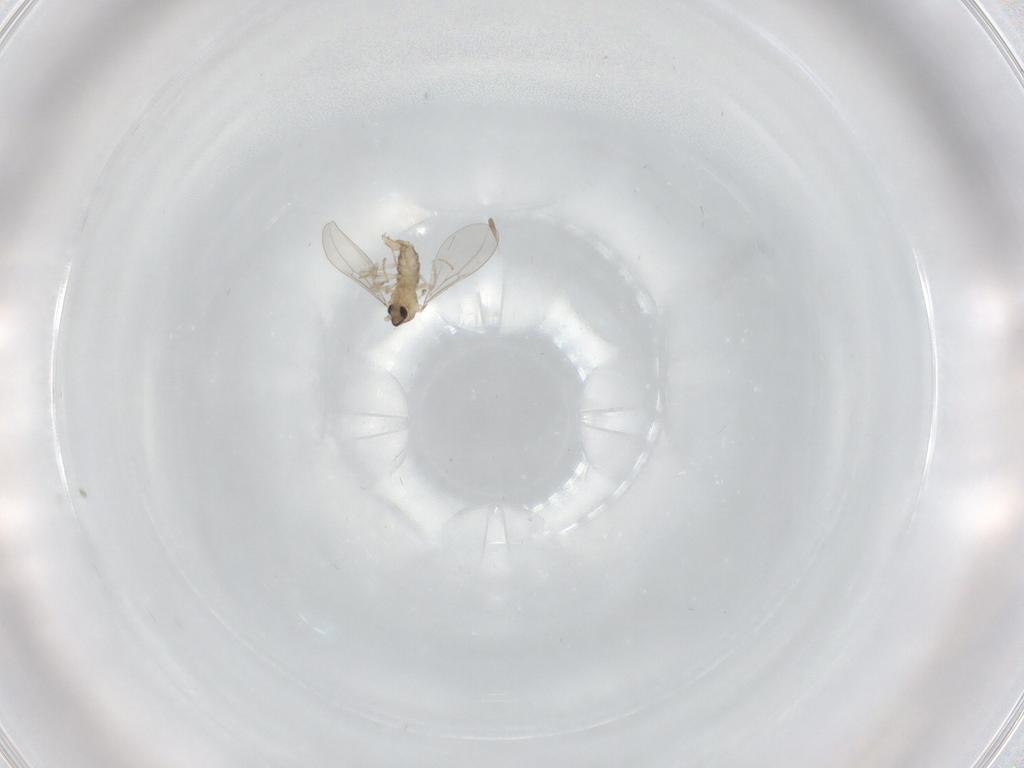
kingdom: Animalia
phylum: Arthropoda
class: Insecta
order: Diptera
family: Cecidomyiidae
